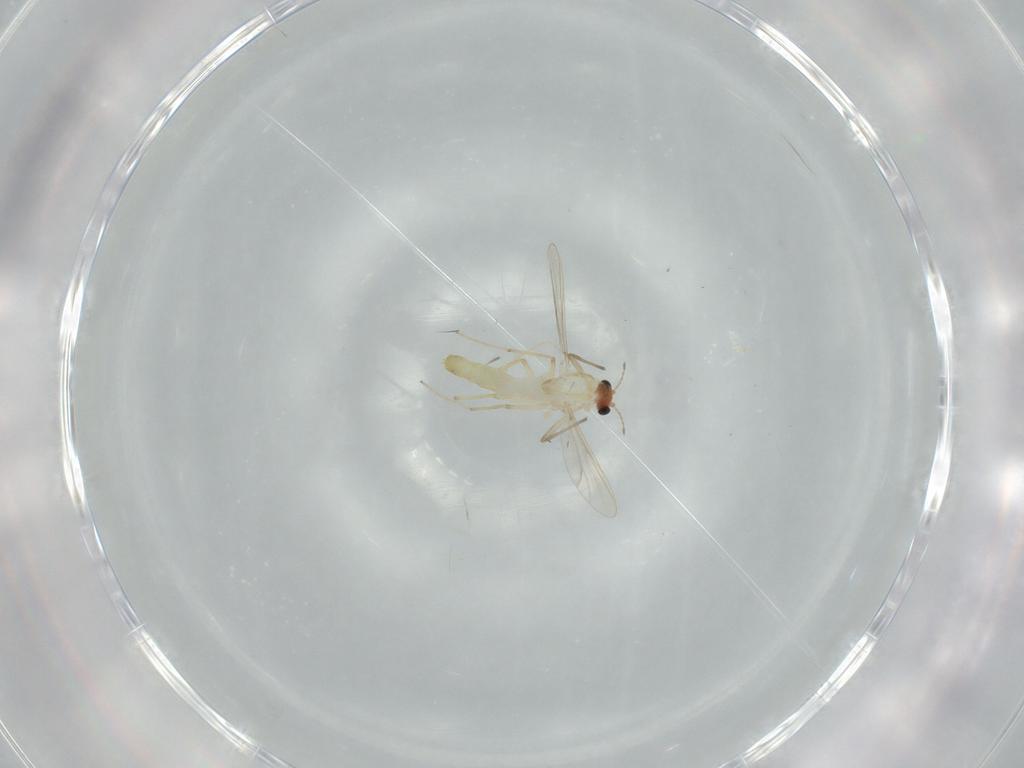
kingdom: Animalia
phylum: Arthropoda
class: Insecta
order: Diptera
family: Chironomidae
